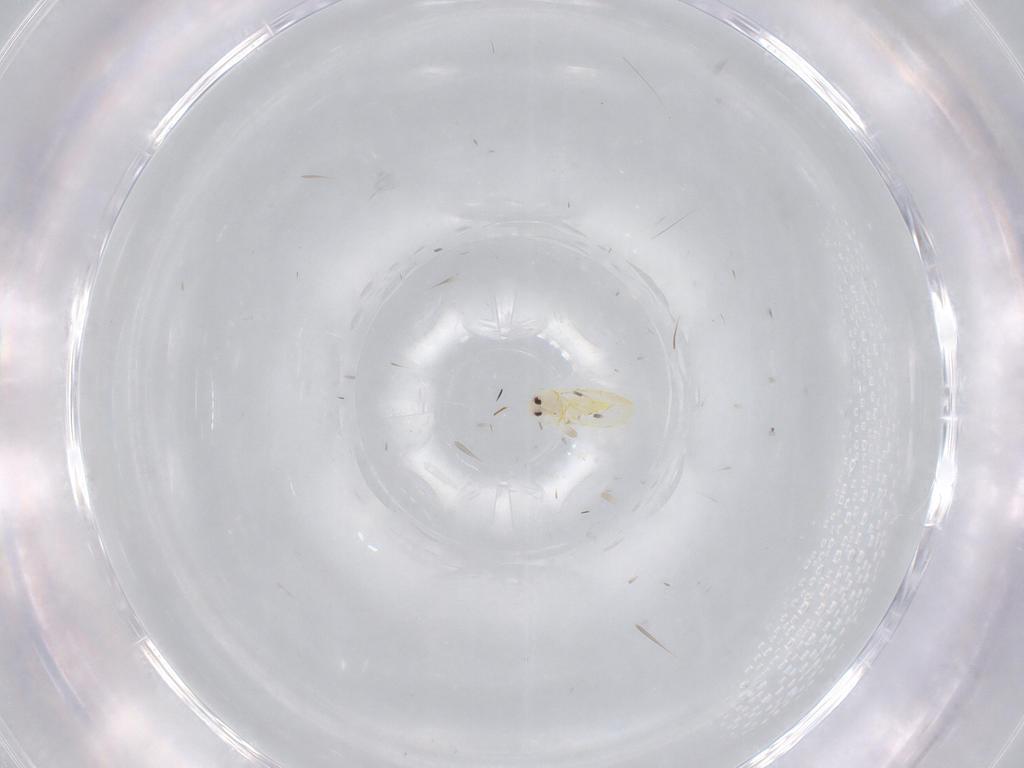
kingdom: Animalia
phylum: Arthropoda
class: Insecta
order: Hemiptera
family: Aleyrodidae
